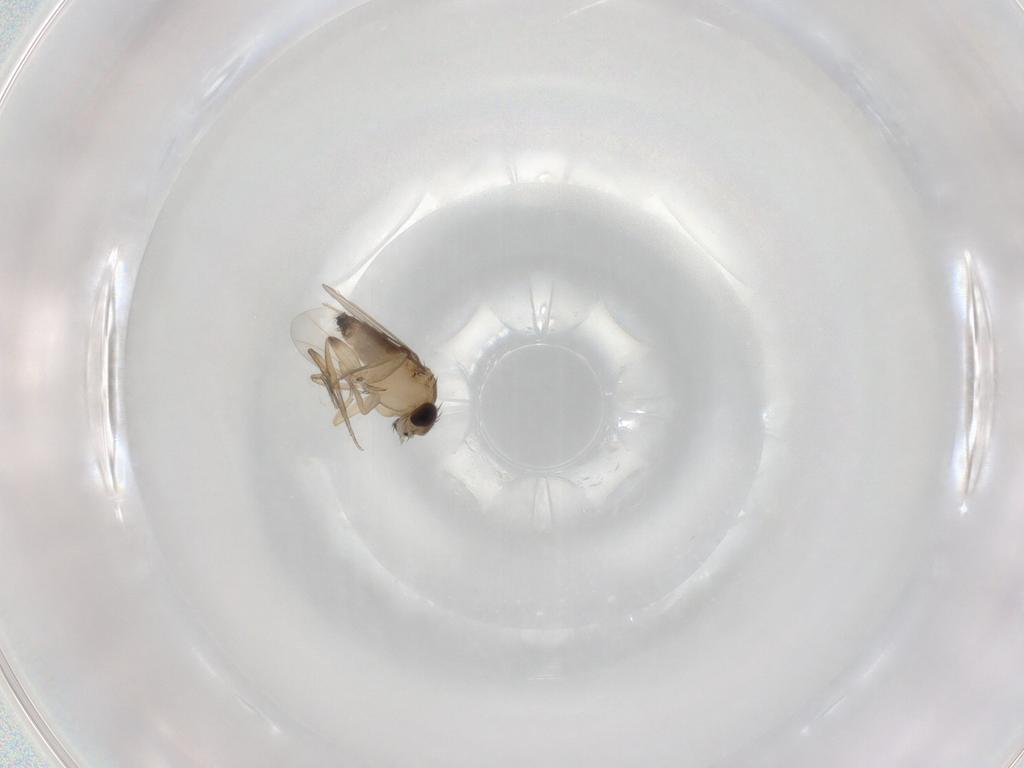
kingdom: Animalia
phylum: Arthropoda
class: Insecta
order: Diptera
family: Phoridae
